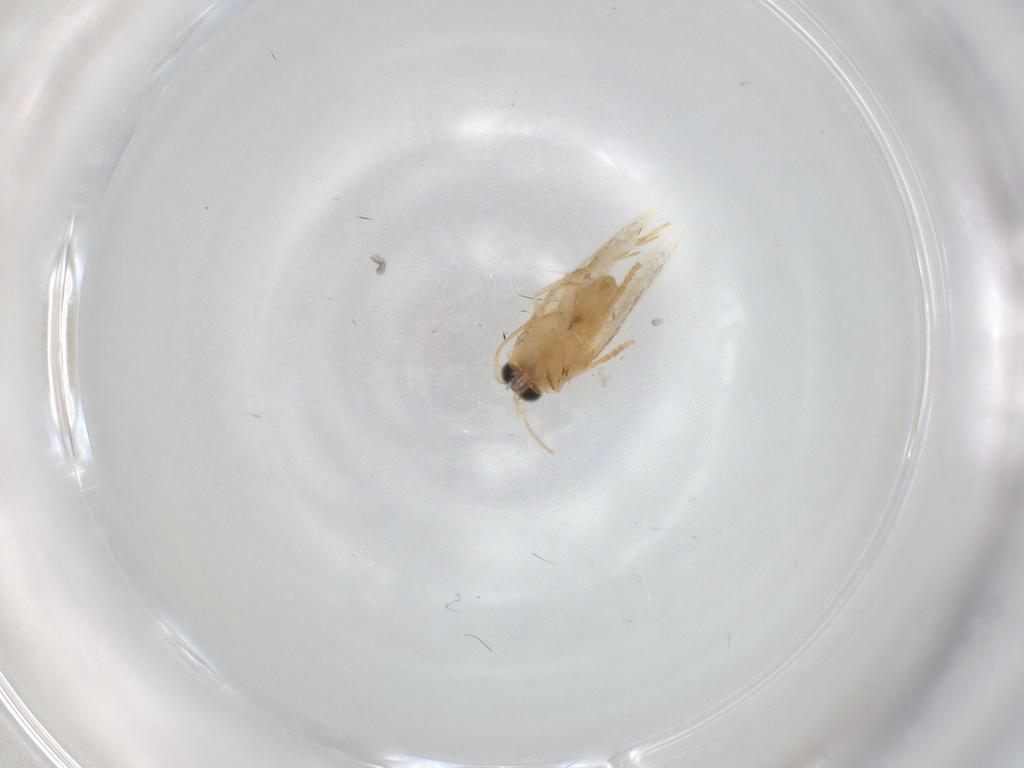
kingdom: Animalia
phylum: Arthropoda
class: Insecta
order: Lepidoptera
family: Nepticulidae
